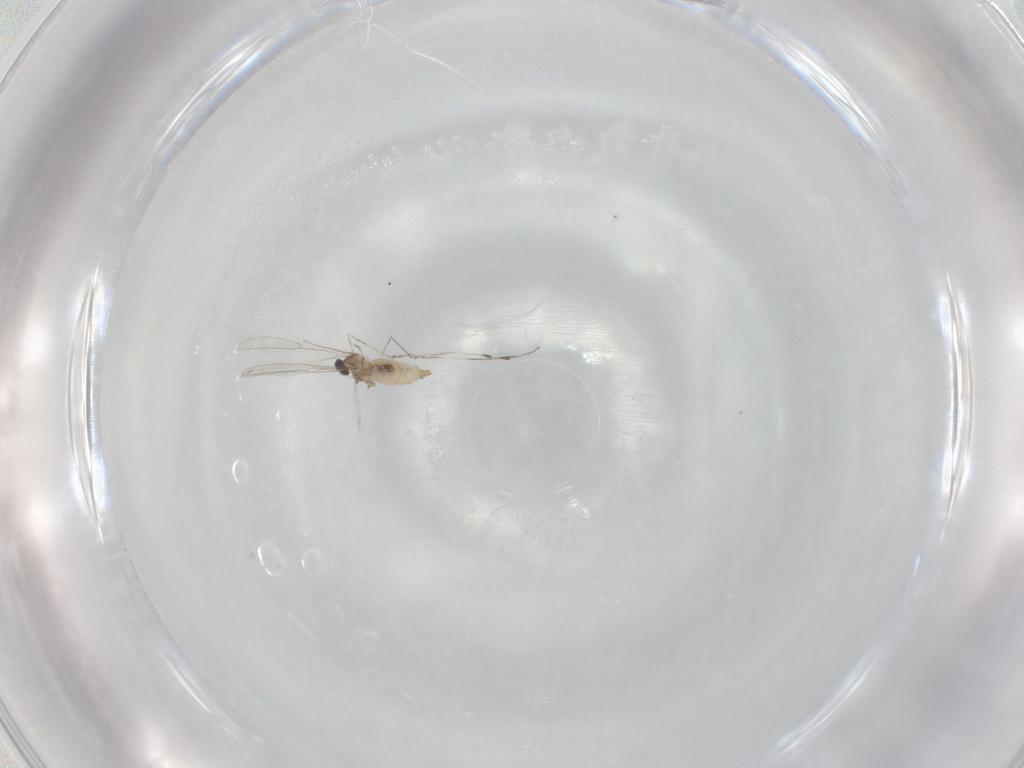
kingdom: Animalia
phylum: Arthropoda
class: Insecta
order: Diptera
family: Cecidomyiidae
